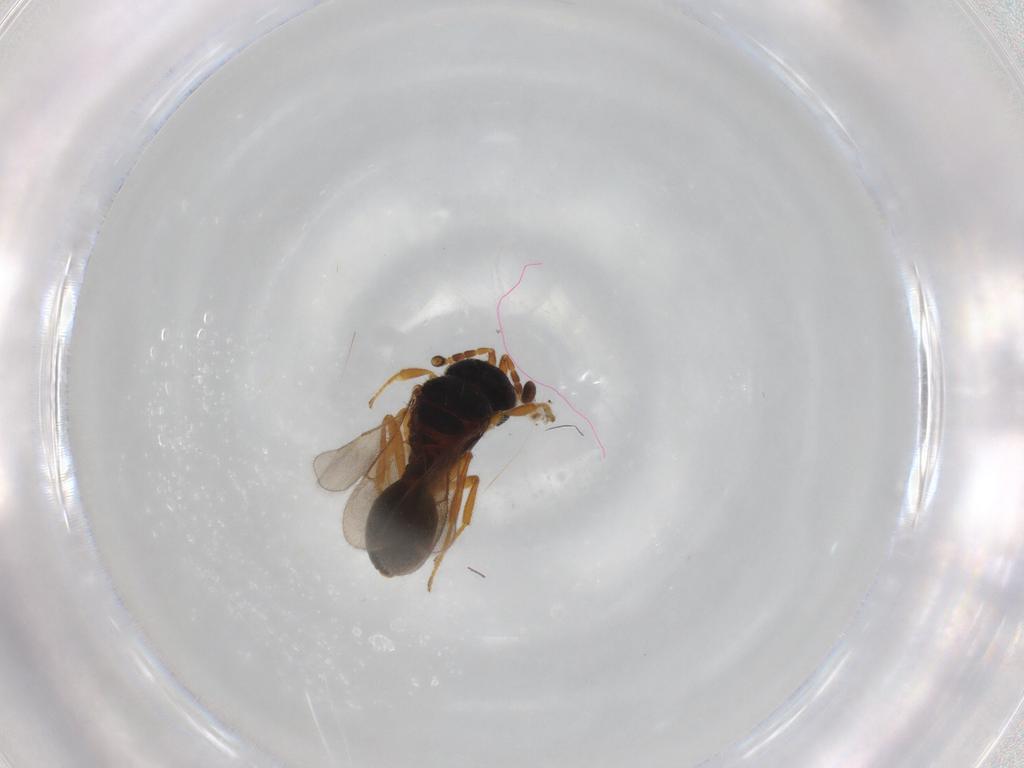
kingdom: Animalia
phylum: Arthropoda
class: Insecta
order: Hymenoptera
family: Scelionidae
